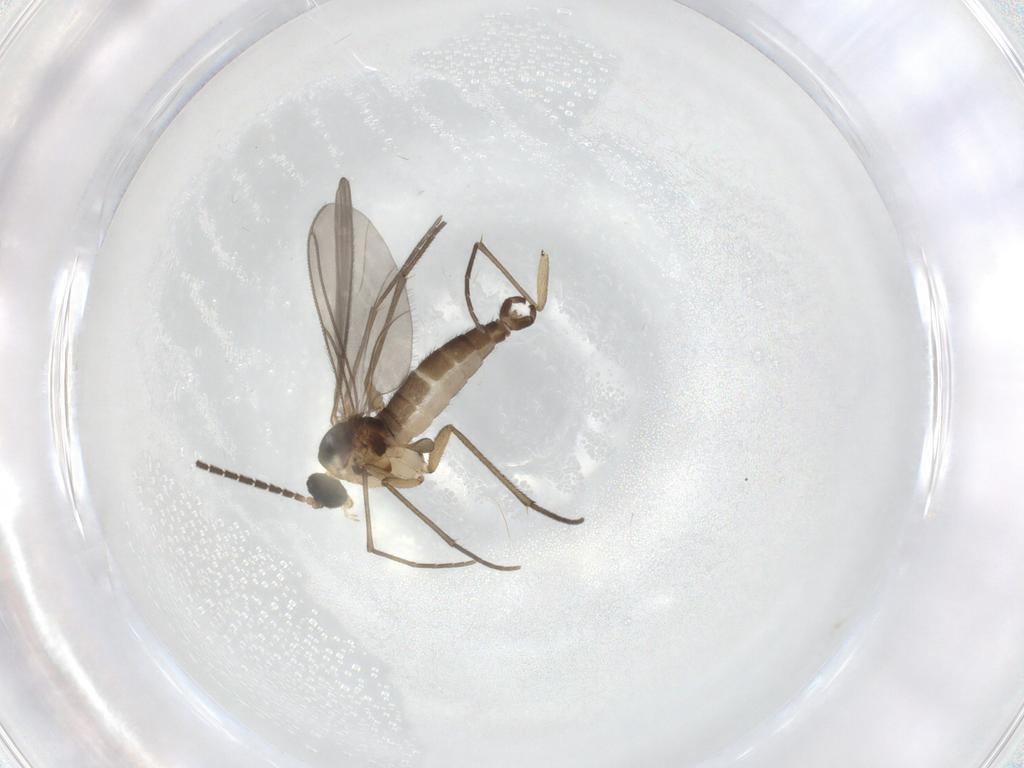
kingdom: Animalia
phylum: Arthropoda
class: Insecta
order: Diptera
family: Sciaridae
